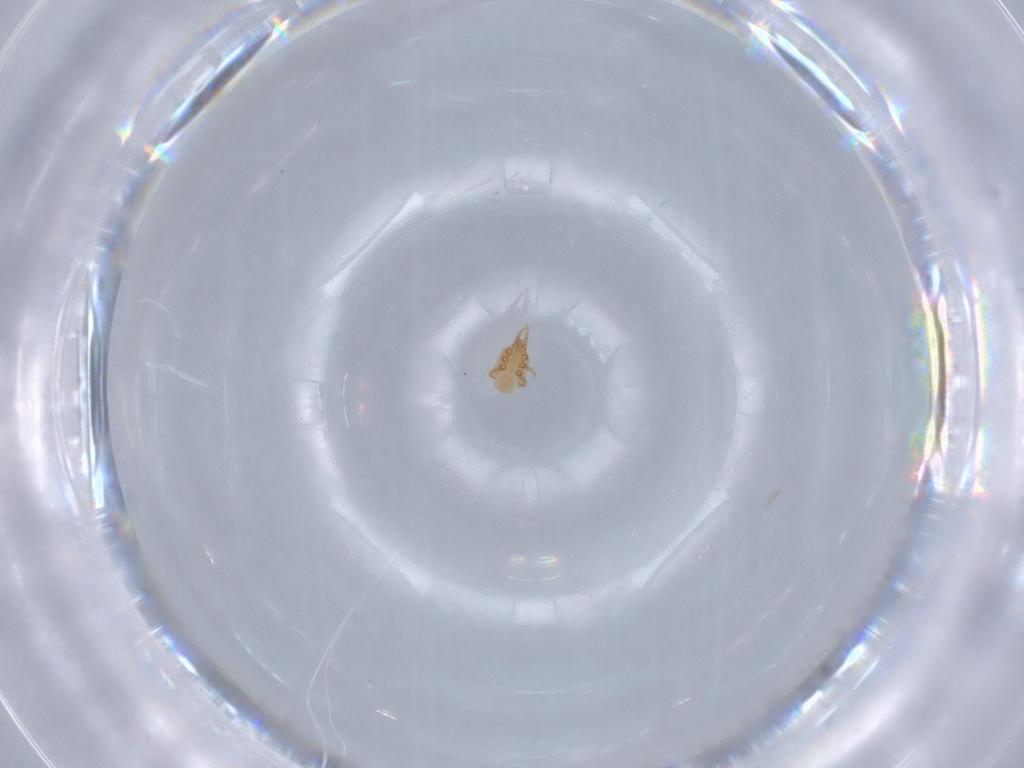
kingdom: Animalia
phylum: Arthropoda
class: Arachnida
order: Mesostigmata
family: Dinychidae
